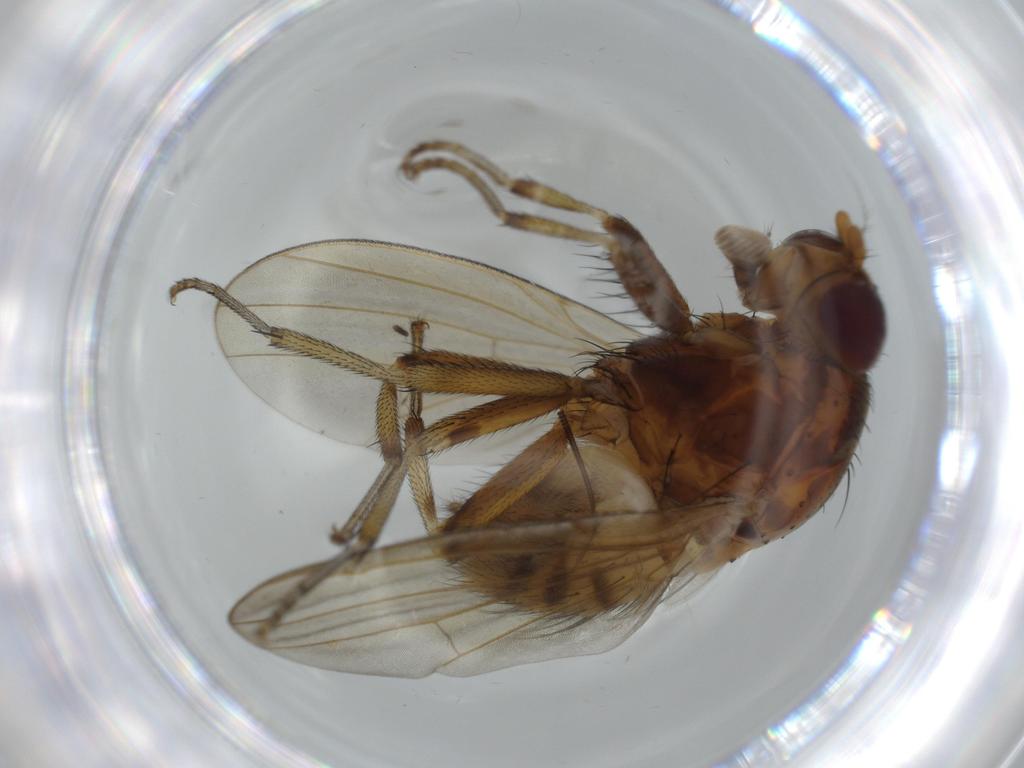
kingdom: Animalia
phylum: Arthropoda
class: Insecta
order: Diptera
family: Chironomidae
